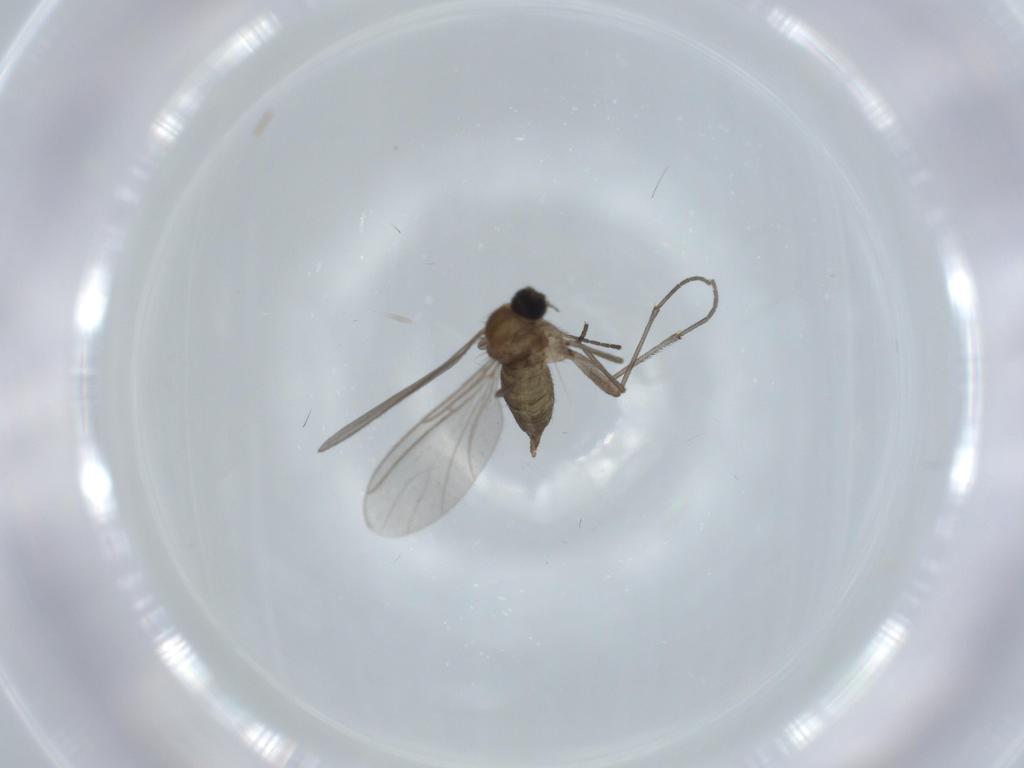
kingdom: Animalia
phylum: Arthropoda
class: Insecta
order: Diptera
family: Sciaridae
